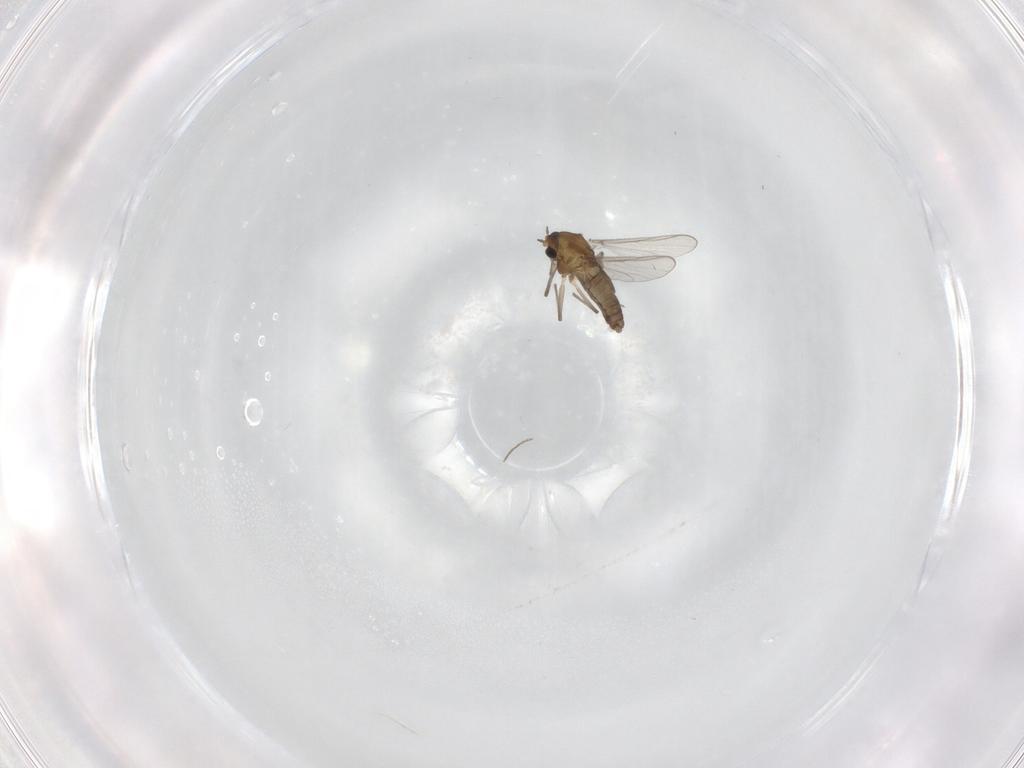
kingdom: Animalia
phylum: Arthropoda
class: Insecta
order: Diptera
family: Chironomidae
